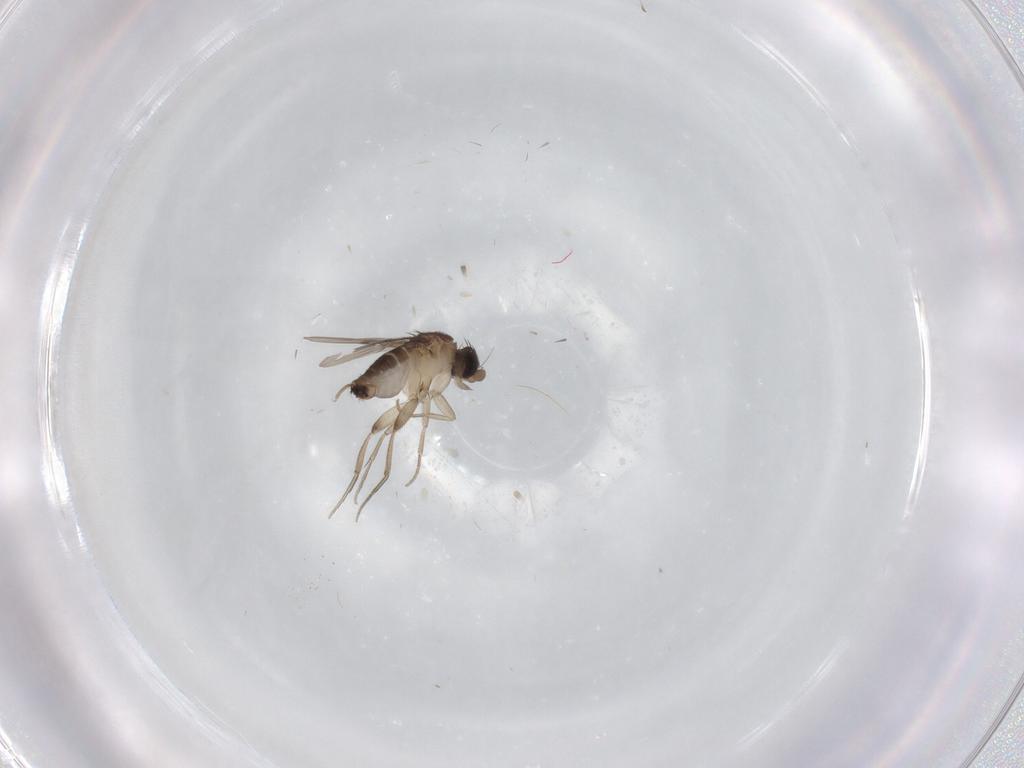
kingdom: Animalia
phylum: Arthropoda
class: Insecta
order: Diptera
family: Phoridae
